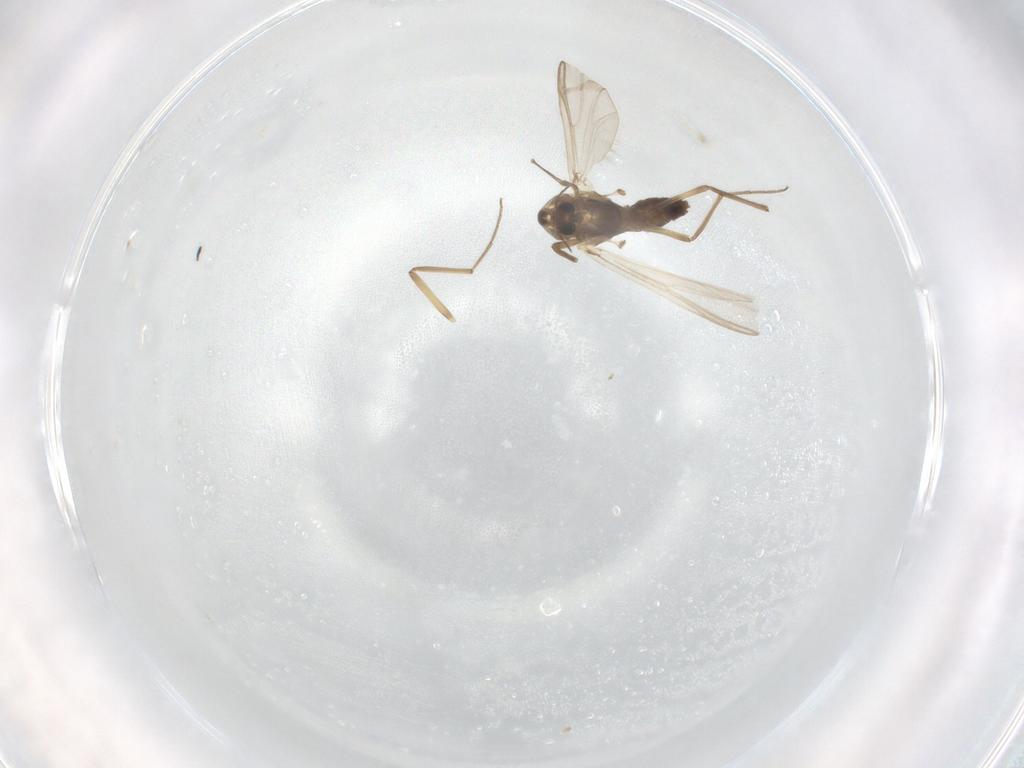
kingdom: Animalia
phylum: Arthropoda
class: Insecta
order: Diptera
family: Chironomidae
